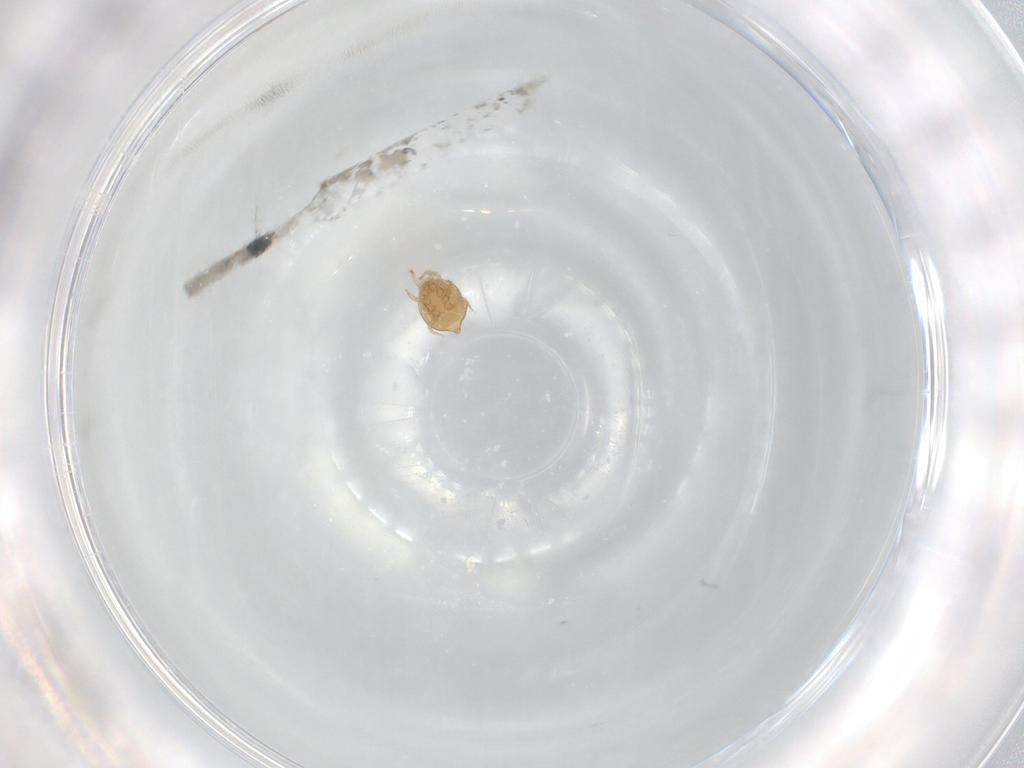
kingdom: Animalia
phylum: Arthropoda
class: Arachnida
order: Mesostigmata
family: Polyaspididae
